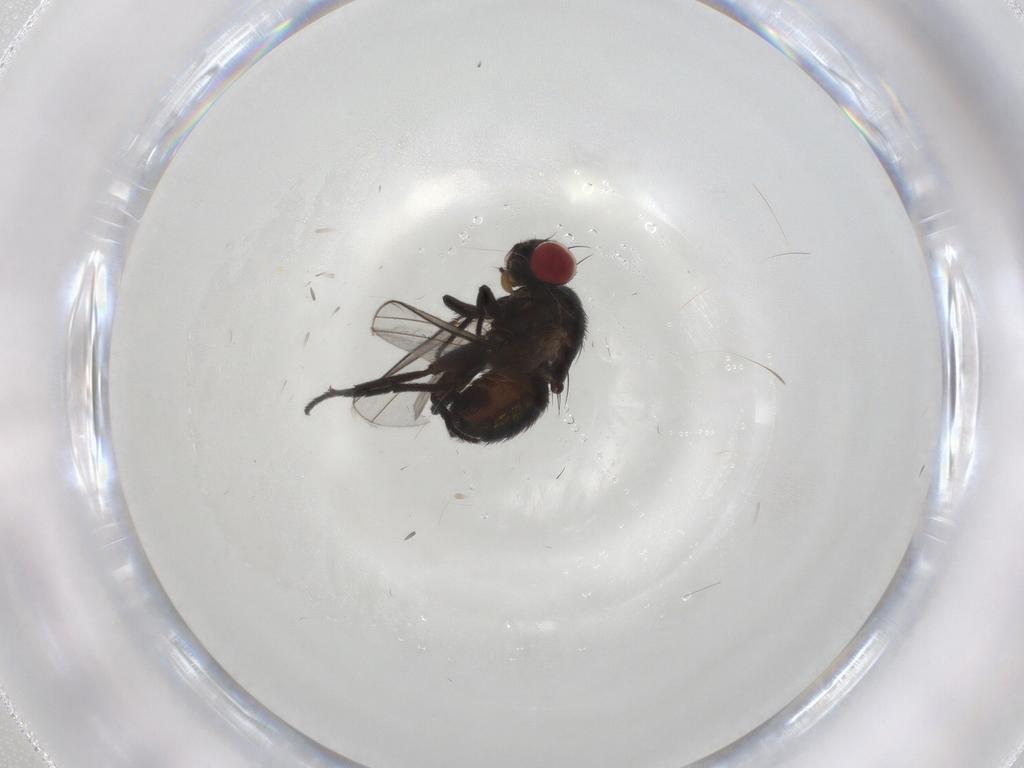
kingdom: Animalia
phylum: Arthropoda
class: Insecta
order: Diptera
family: Agromyzidae
